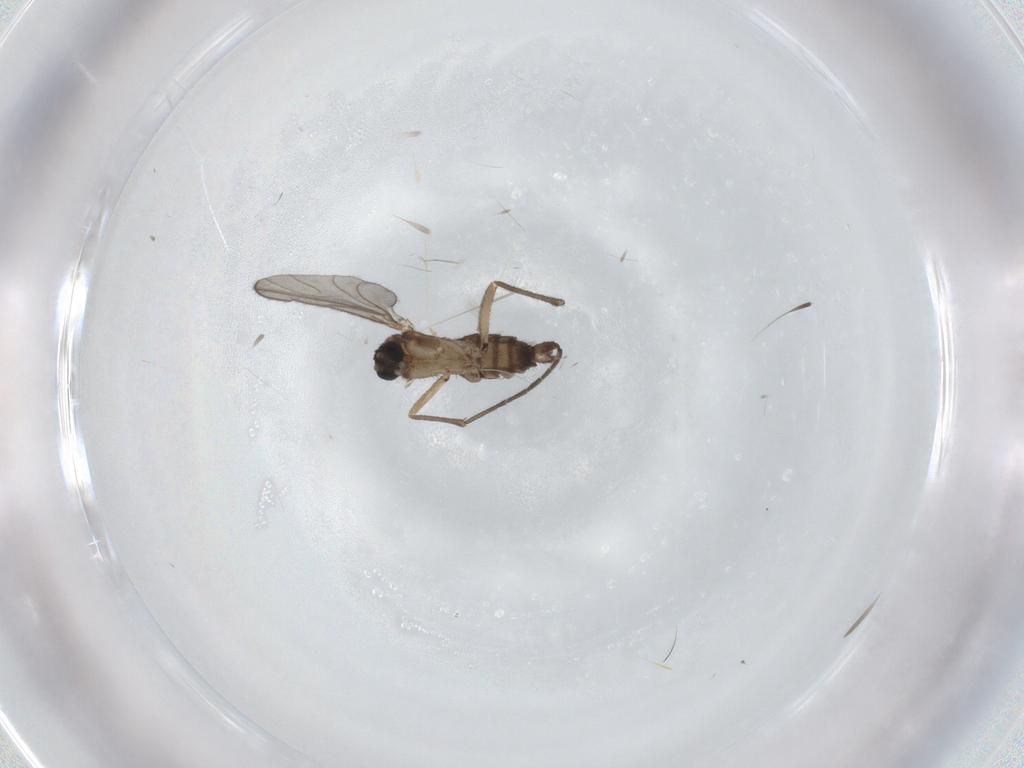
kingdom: Animalia
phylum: Arthropoda
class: Insecta
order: Diptera
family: Sciaridae
